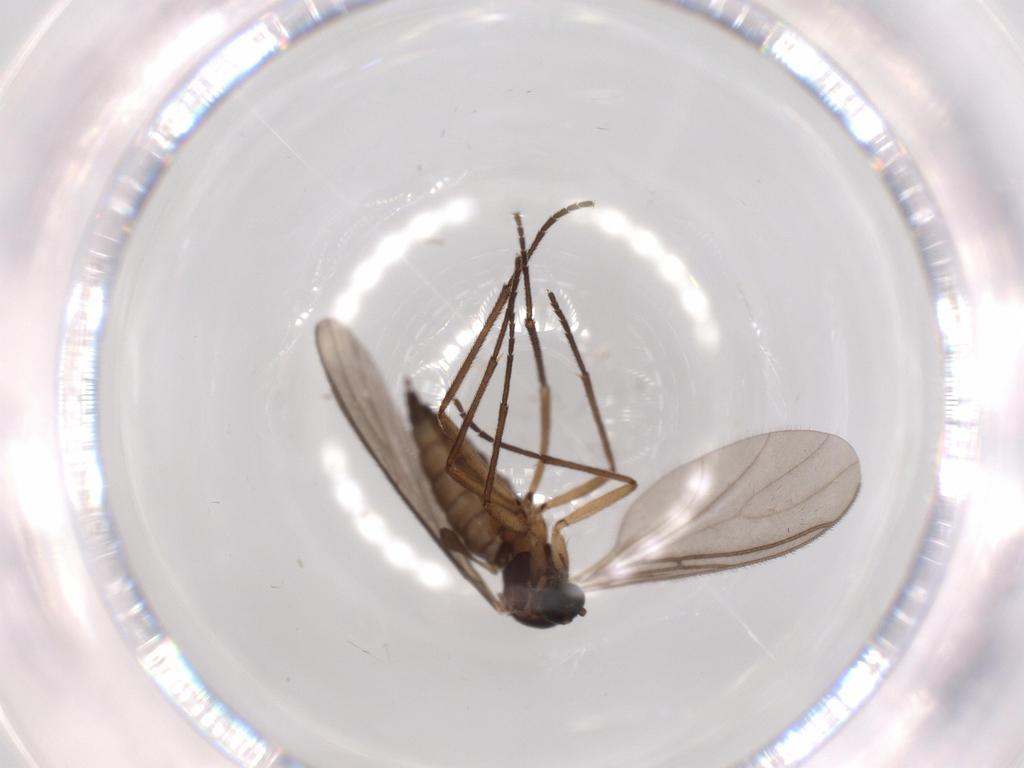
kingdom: Animalia
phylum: Arthropoda
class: Insecta
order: Diptera
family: Sciaridae
